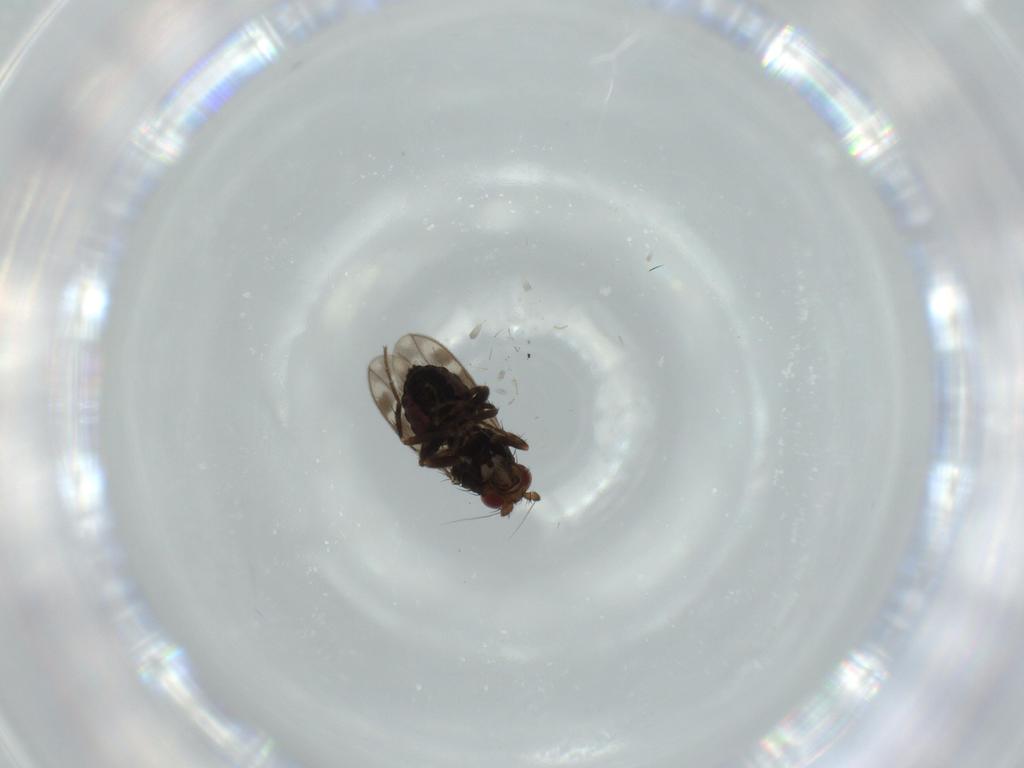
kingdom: Animalia
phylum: Arthropoda
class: Insecta
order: Diptera
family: Sphaeroceridae
